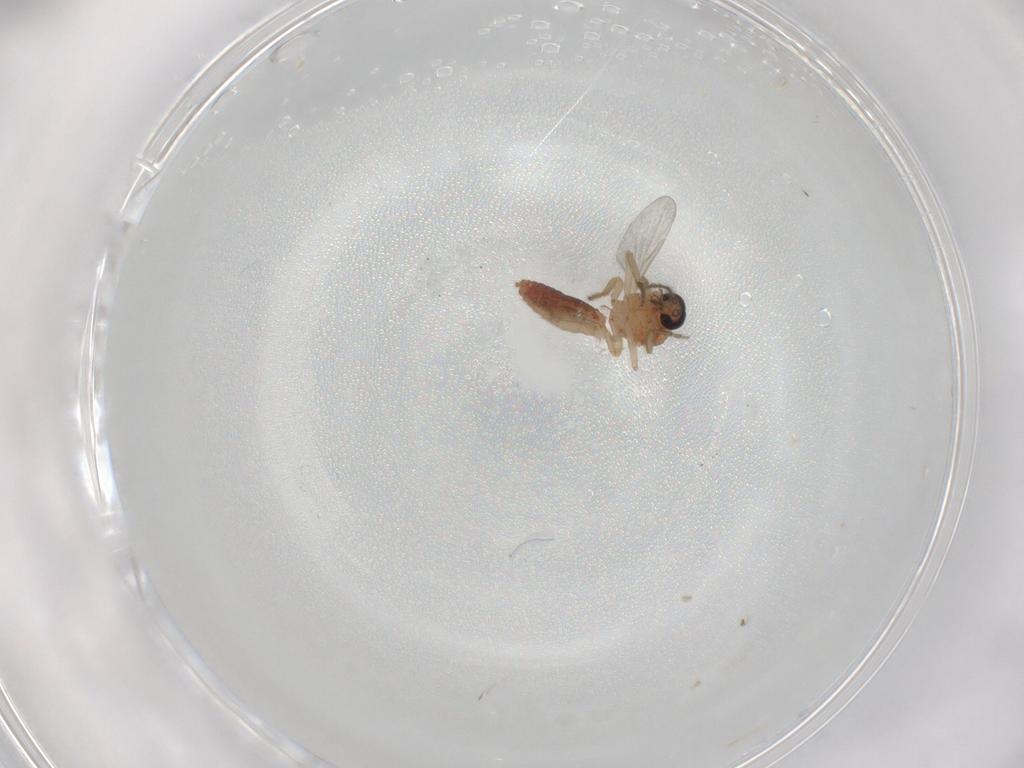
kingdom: Animalia
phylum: Arthropoda
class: Insecta
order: Diptera
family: Ceratopogonidae
